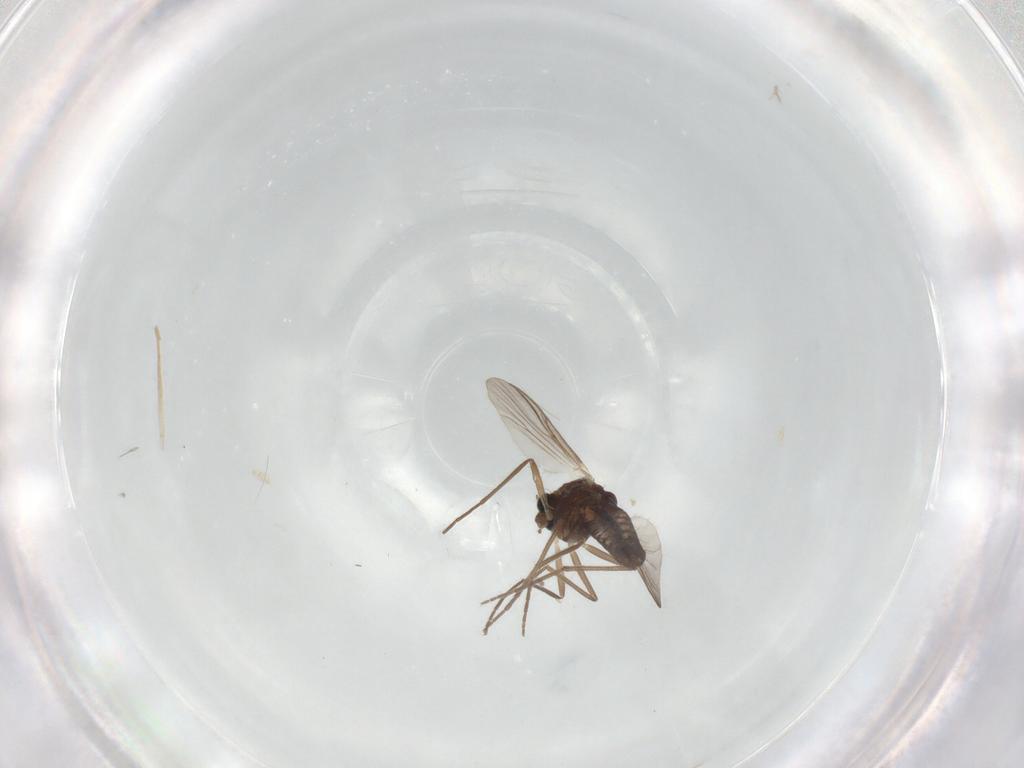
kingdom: Animalia
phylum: Arthropoda
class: Insecta
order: Diptera
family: Chironomidae
